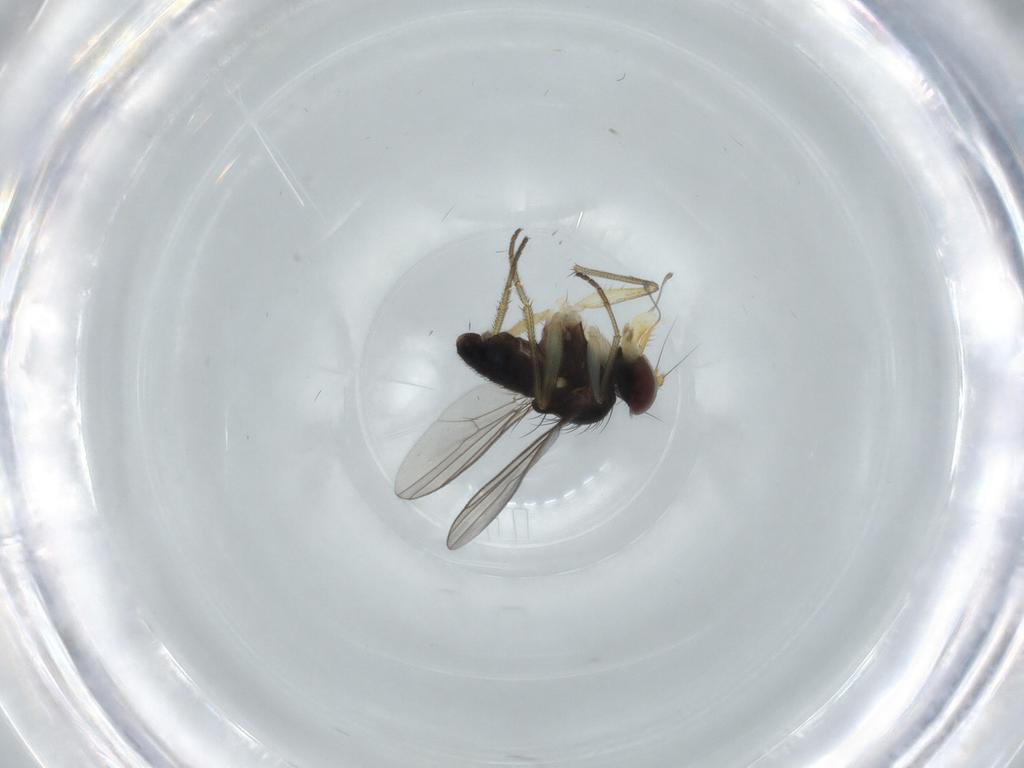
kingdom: Animalia
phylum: Arthropoda
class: Insecta
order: Diptera
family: Dolichopodidae
